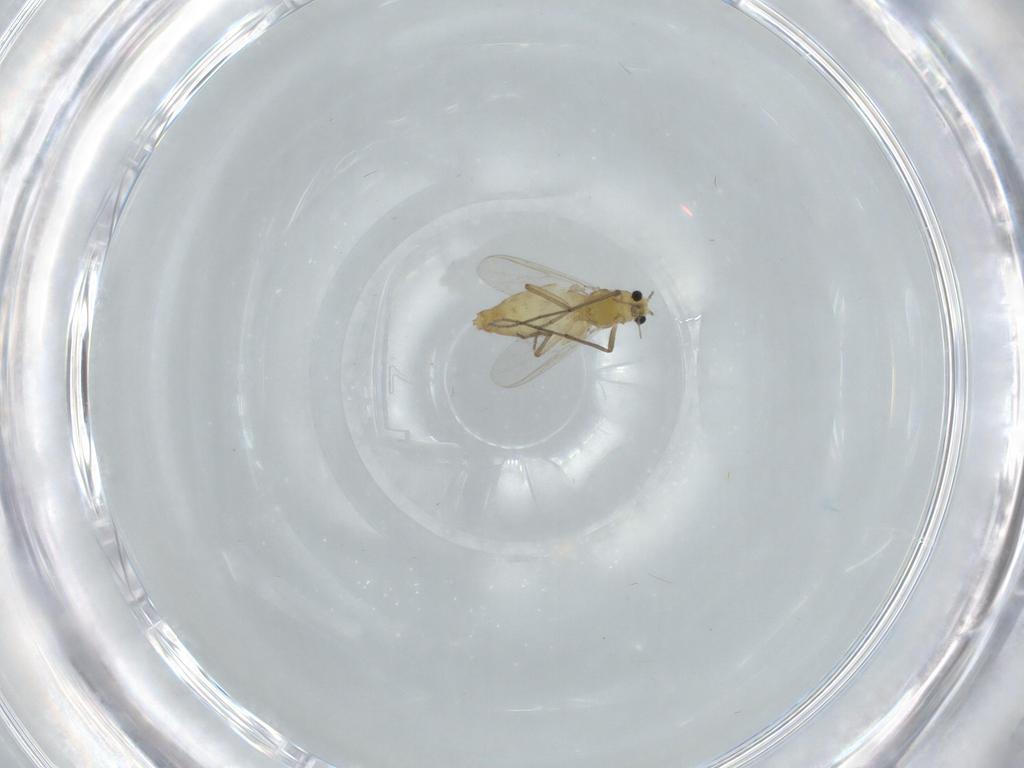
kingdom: Animalia
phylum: Arthropoda
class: Insecta
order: Diptera
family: Chironomidae
